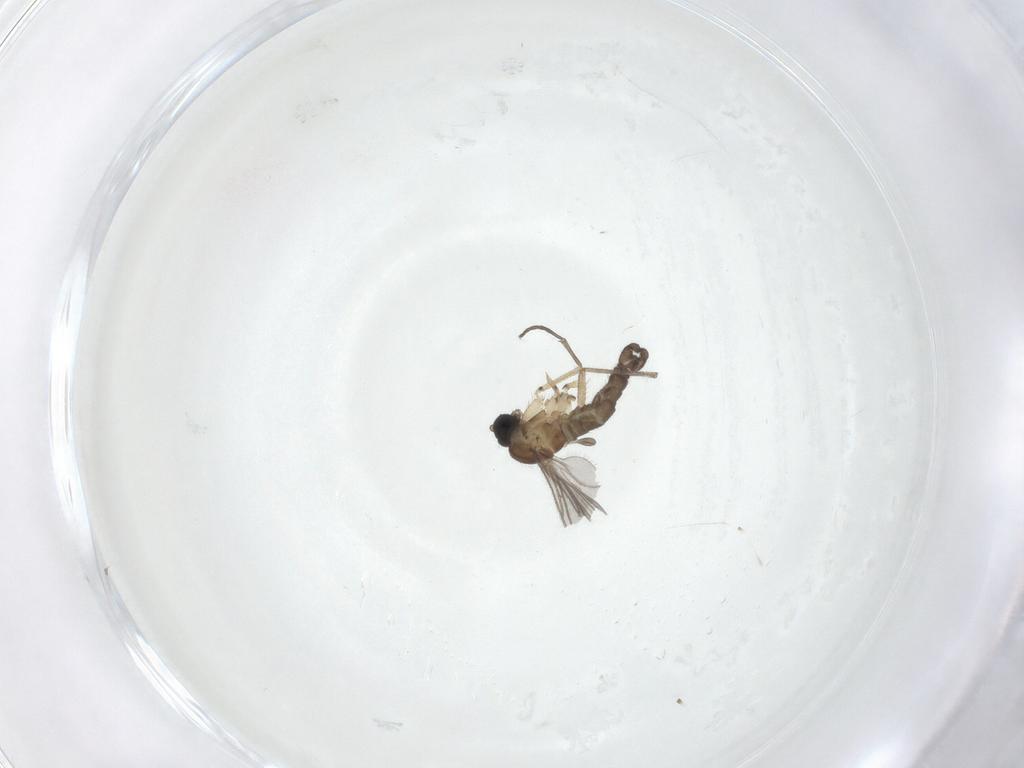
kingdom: Animalia
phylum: Arthropoda
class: Insecta
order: Diptera
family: Sciaridae
